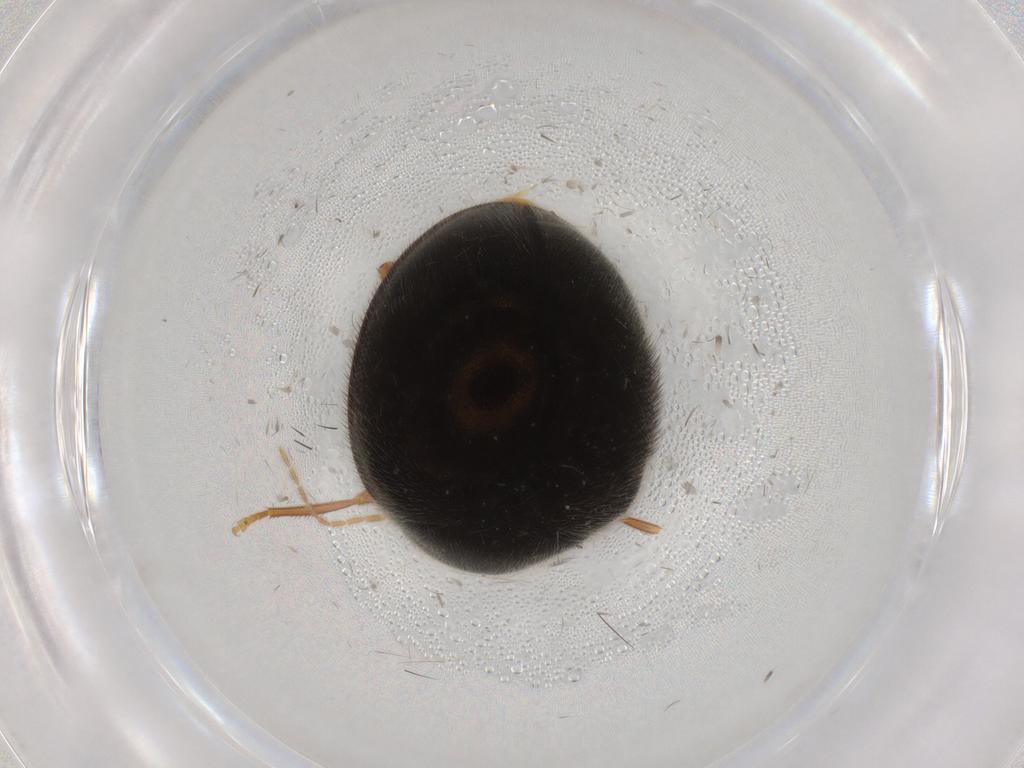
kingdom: Animalia
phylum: Arthropoda
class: Insecta
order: Coleoptera
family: Scirtidae
